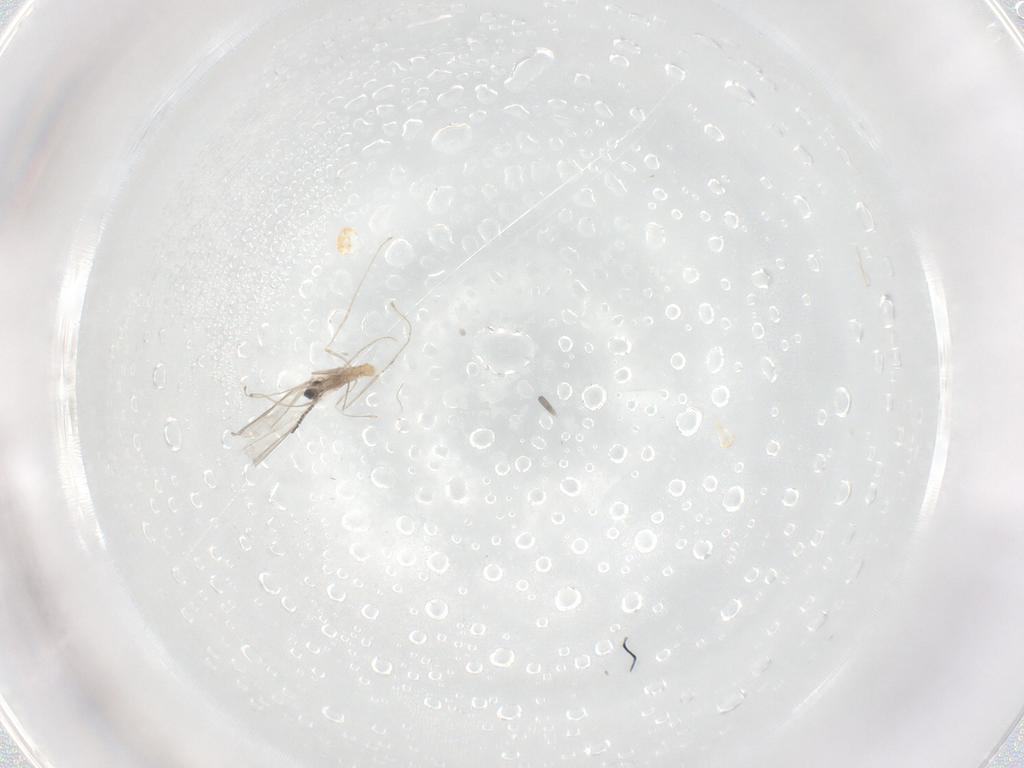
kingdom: Animalia
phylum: Arthropoda
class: Insecta
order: Diptera
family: Cecidomyiidae
